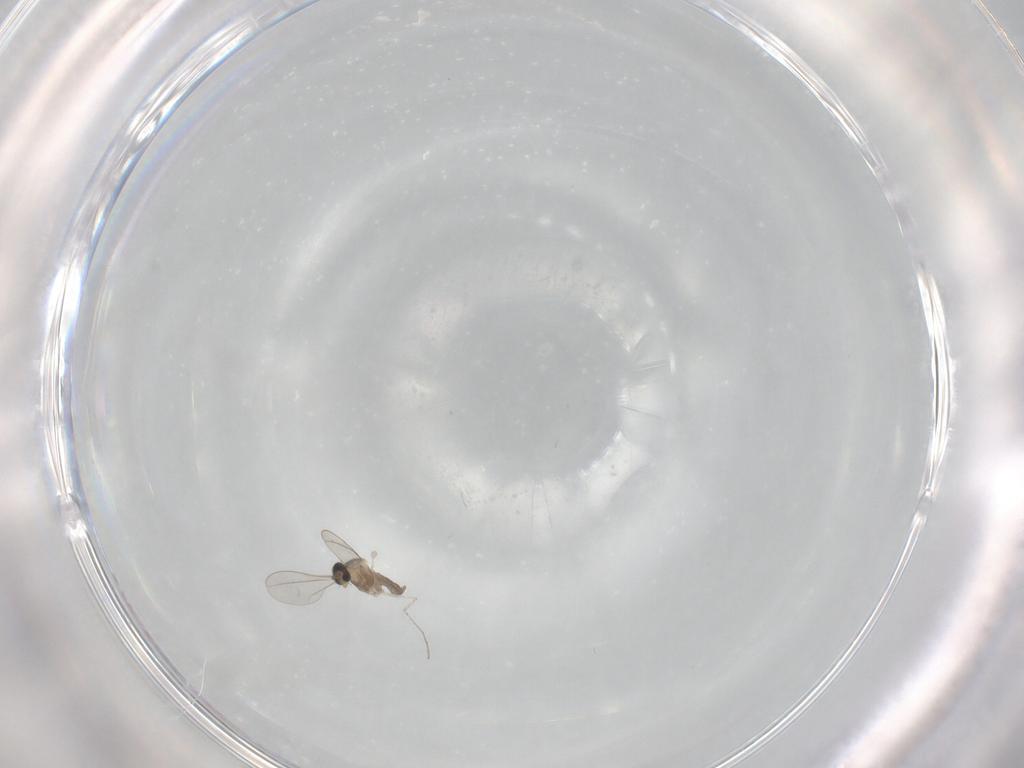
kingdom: Animalia
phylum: Arthropoda
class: Insecta
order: Diptera
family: Cecidomyiidae
